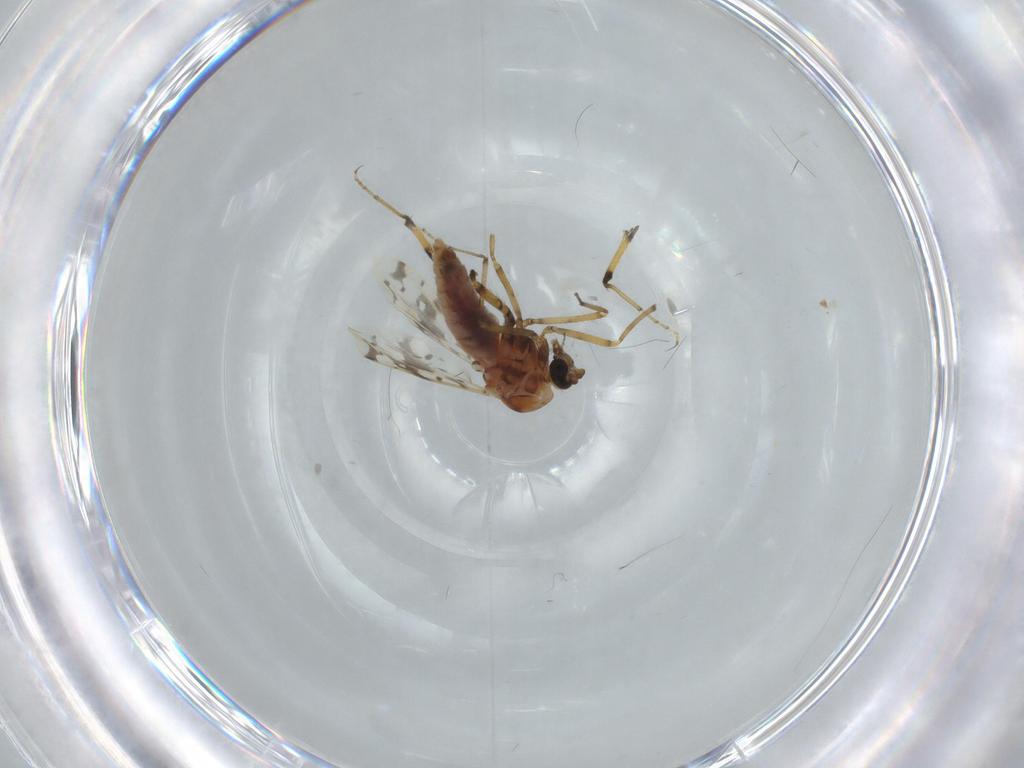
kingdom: Animalia
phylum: Arthropoda
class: Insecta
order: Diptera
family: Ceratopogonidae
